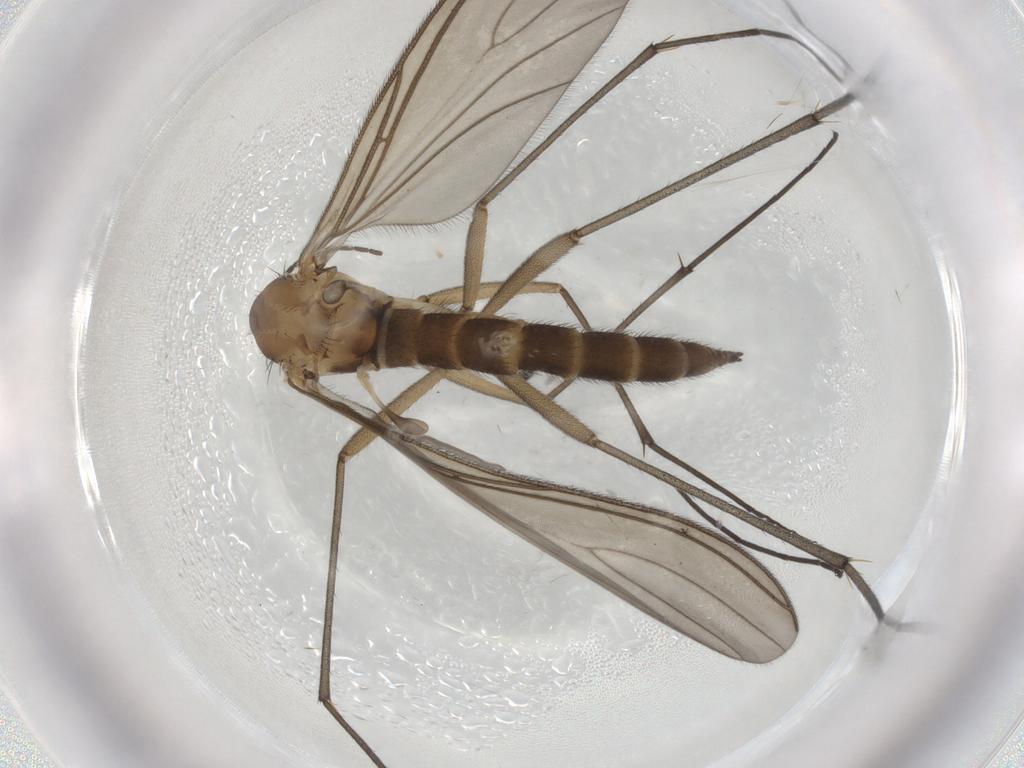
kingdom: Animalia
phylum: Arthropoda
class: Insecta
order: Diptera
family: Sciaridae
